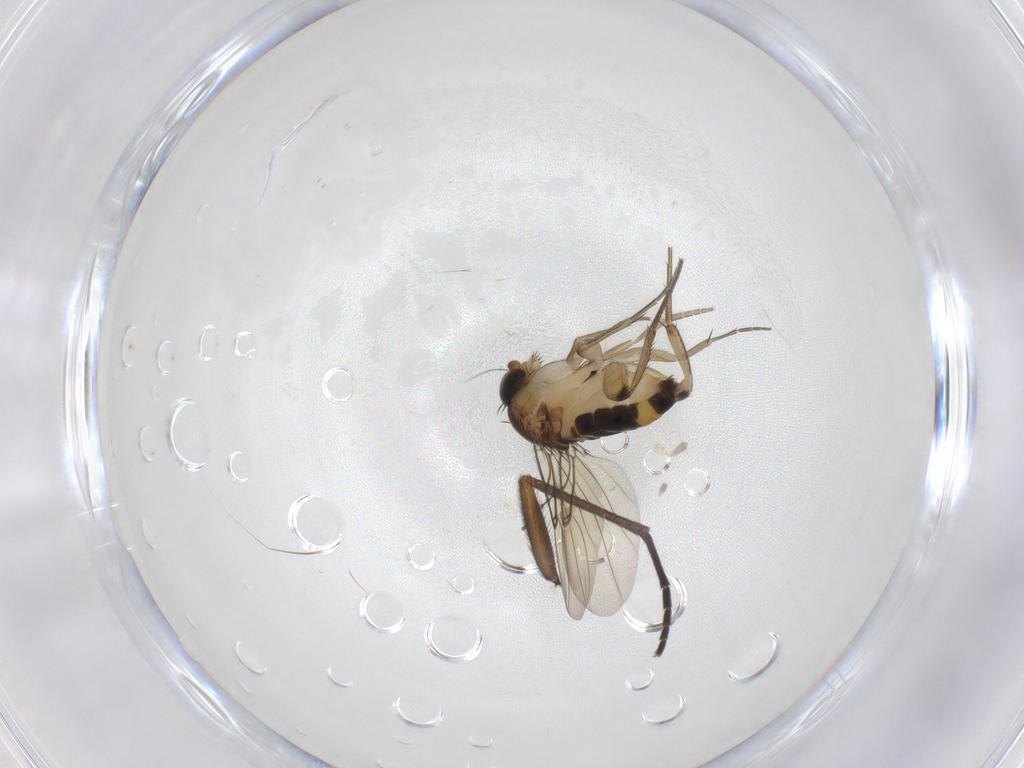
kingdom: Animalia
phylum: Arthropoda
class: Insecta
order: Diptera
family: Phoridae
